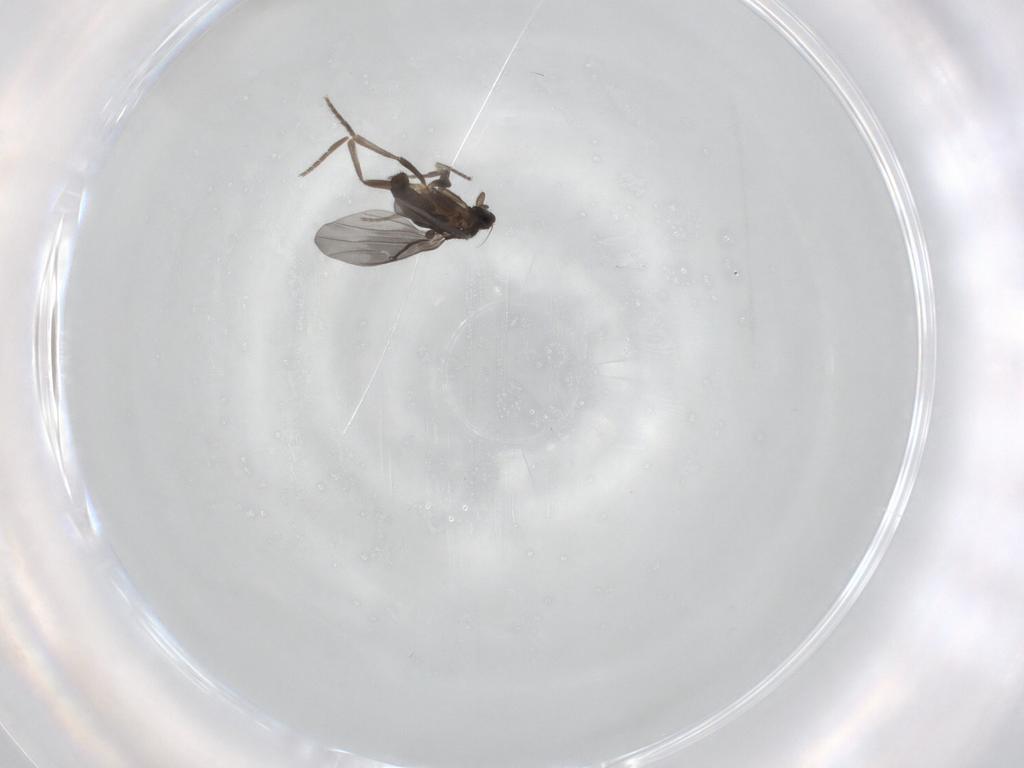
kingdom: Animalia
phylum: Arthropoda
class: Insecta
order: Diptera
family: Phoridae
